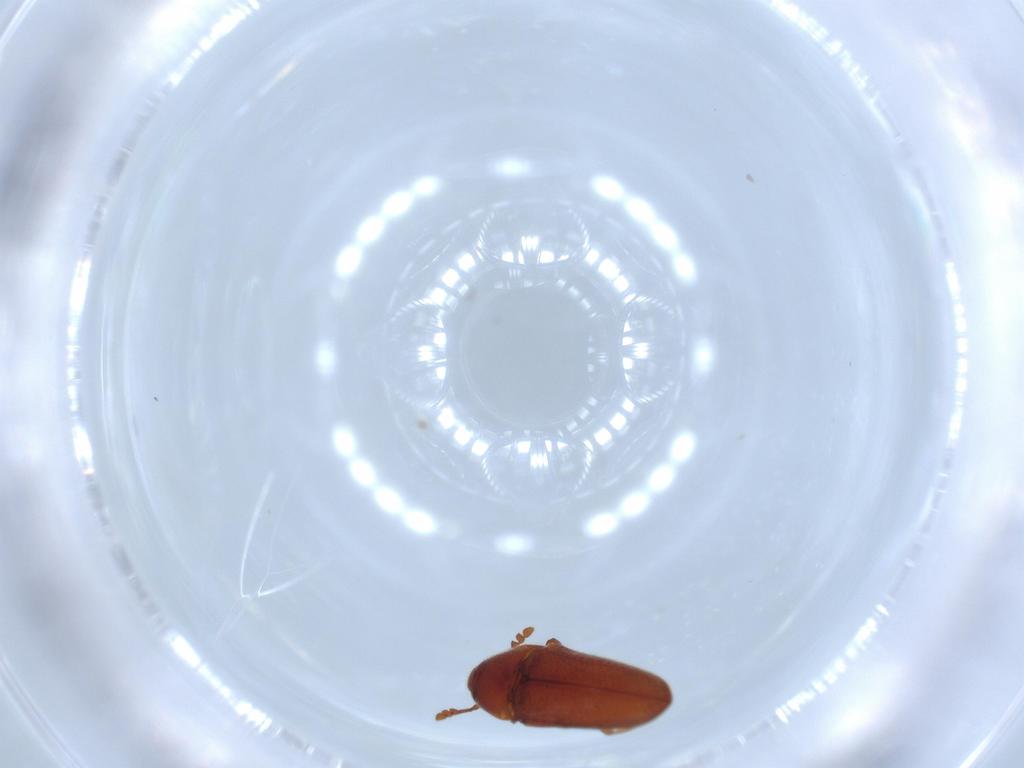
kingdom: Animalia
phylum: Arthropoda
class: Insecta
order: Coleoptera
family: Throscidae
